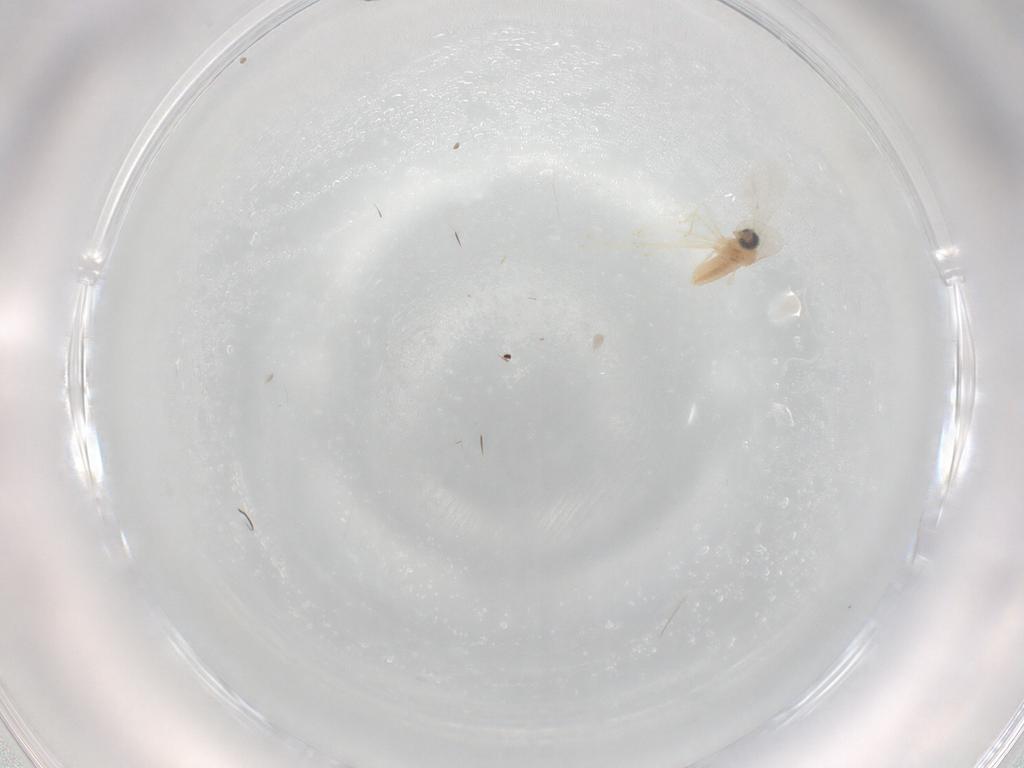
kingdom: Animalia
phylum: Arthropoda
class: Insecta
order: Diptera
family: Cecidomyiidae
